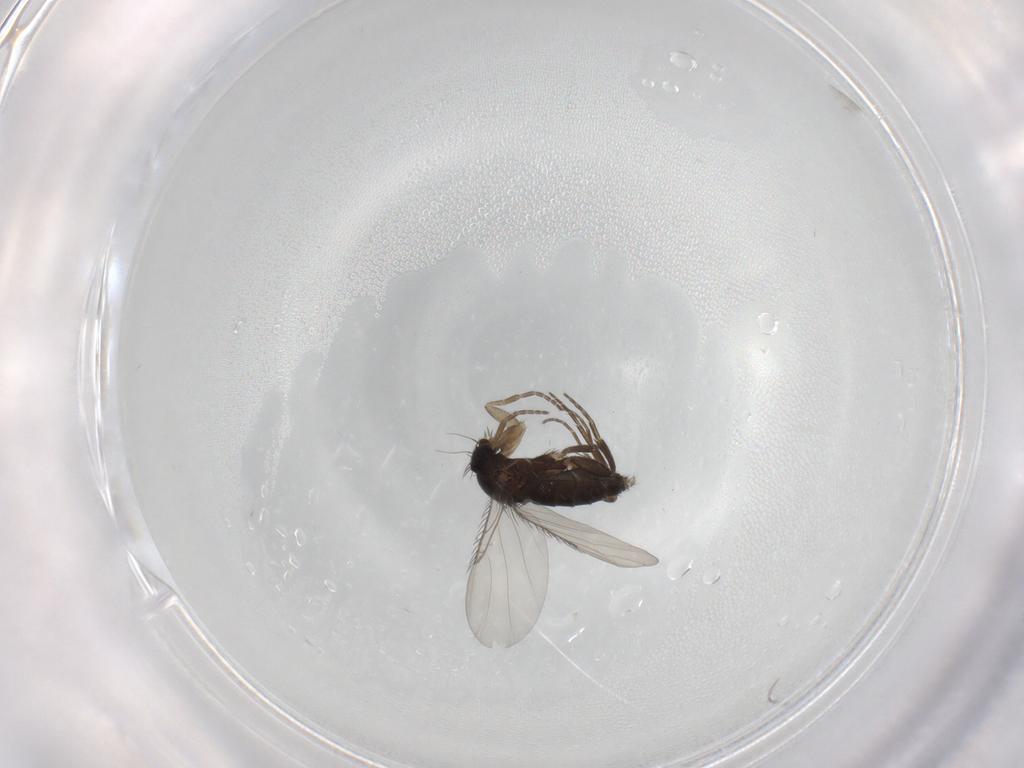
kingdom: Animalia
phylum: Arthropoda
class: Insecta
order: Diptera
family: Phoridae
